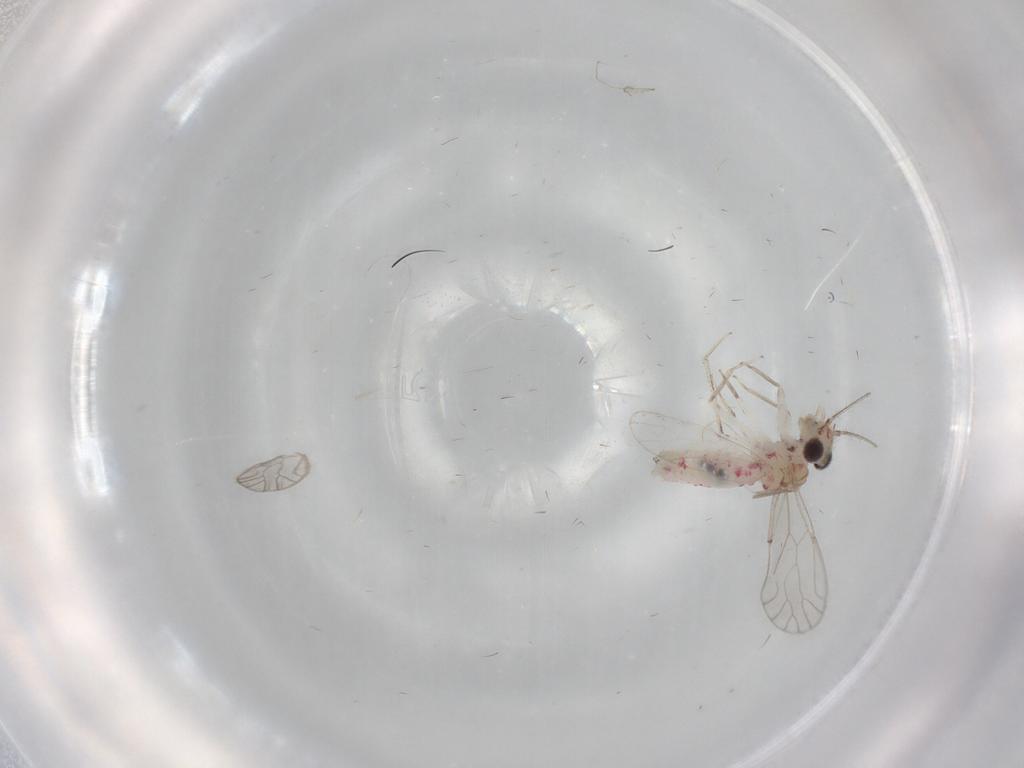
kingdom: Animalia
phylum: Arthropoda
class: Insecta
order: Psocodea
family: Caeciliusidae
